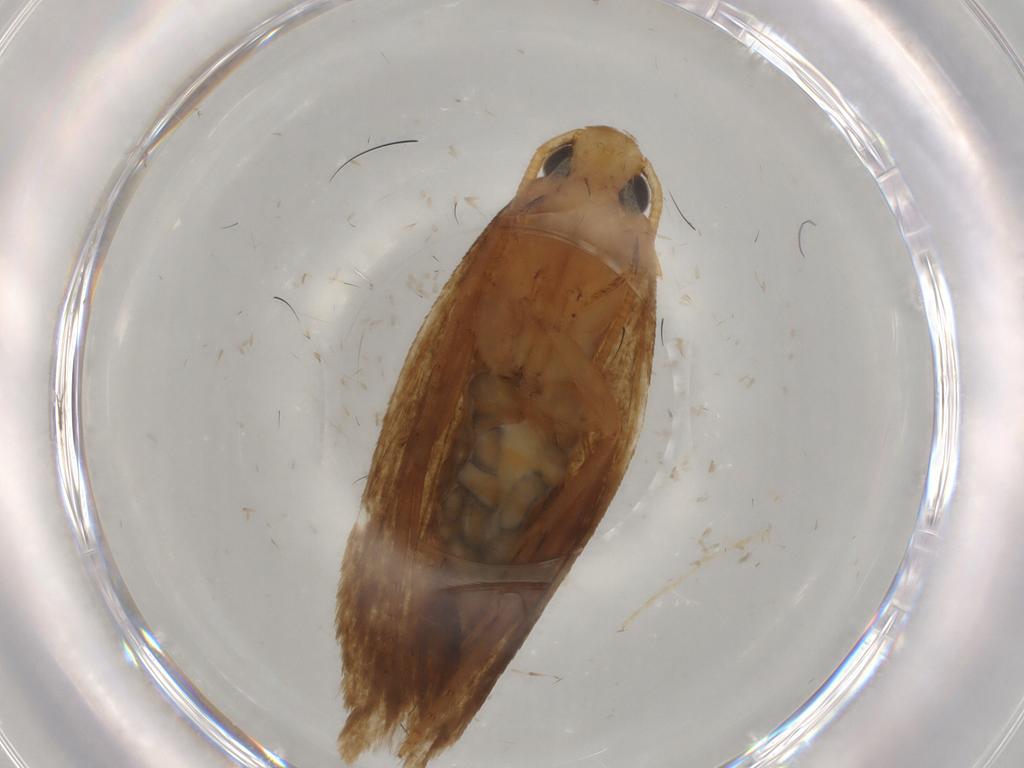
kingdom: Animalia
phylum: Arthropoda
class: Insecta
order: Lepidoptera
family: Tineidae
